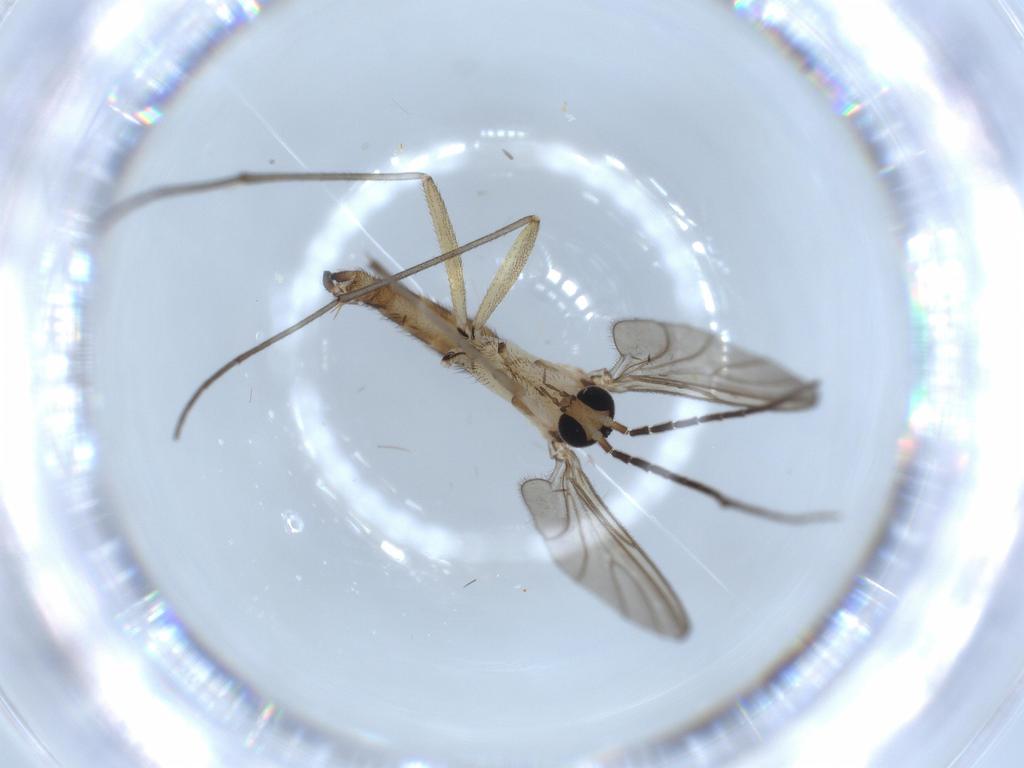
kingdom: Animalia
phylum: Arthropoda
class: Insecta
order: Diptera
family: Sciaridae
